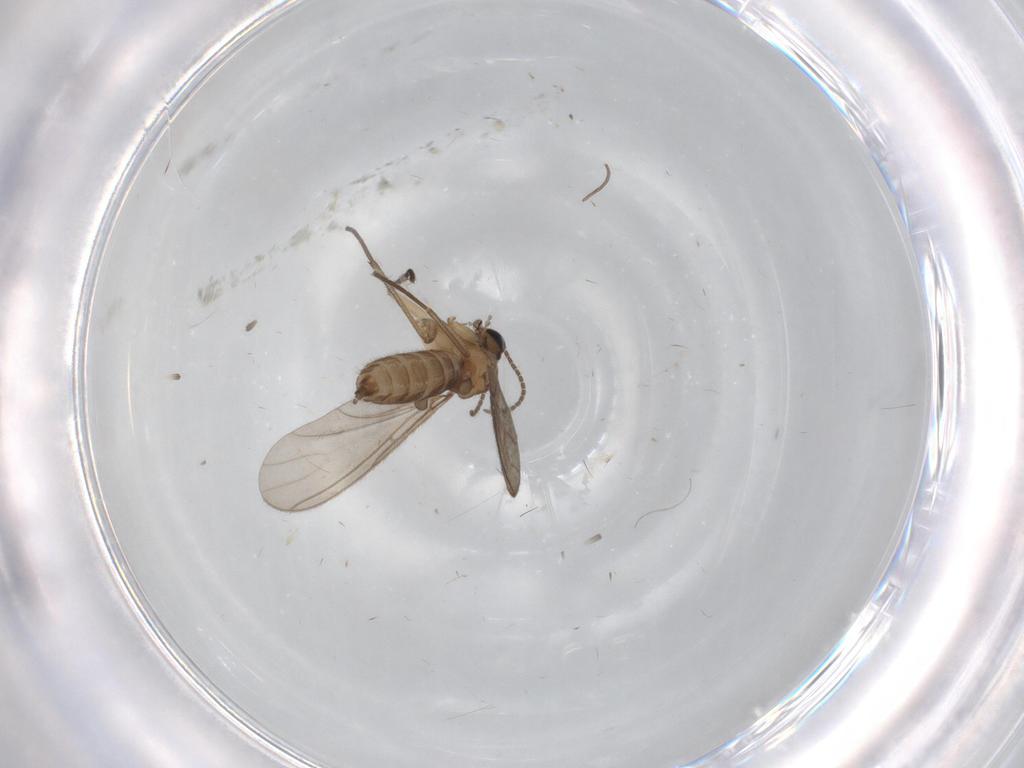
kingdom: Animalia
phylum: Arthropoda
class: Insecta
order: Diptera
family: Sciaridae
